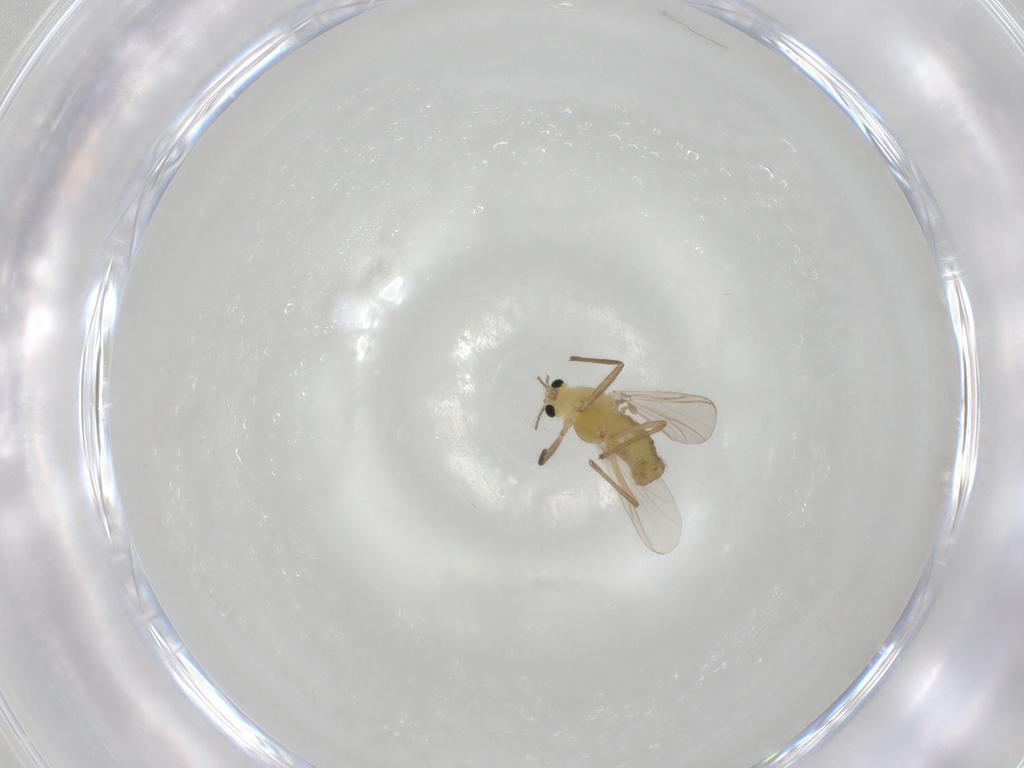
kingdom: Animalia
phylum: Arthropoda
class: Insecta
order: Diptera
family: Chironomidae
